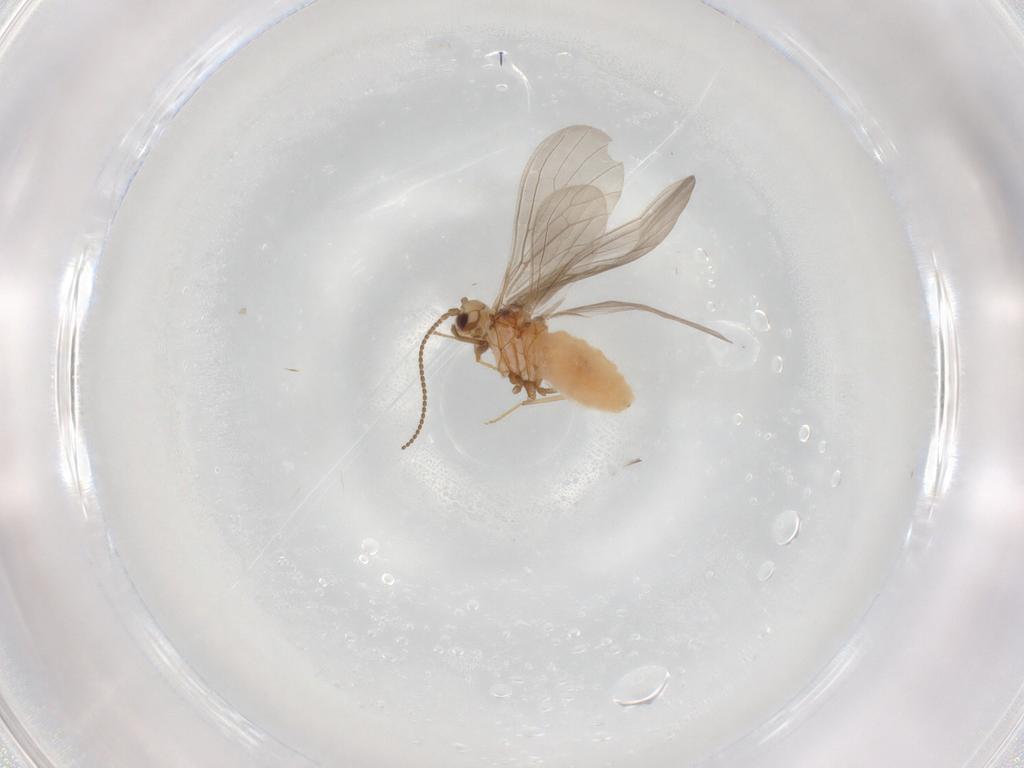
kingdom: Animalia
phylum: Arthropoda
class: Insecta
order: Neuroptera
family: Coniopterygidae
